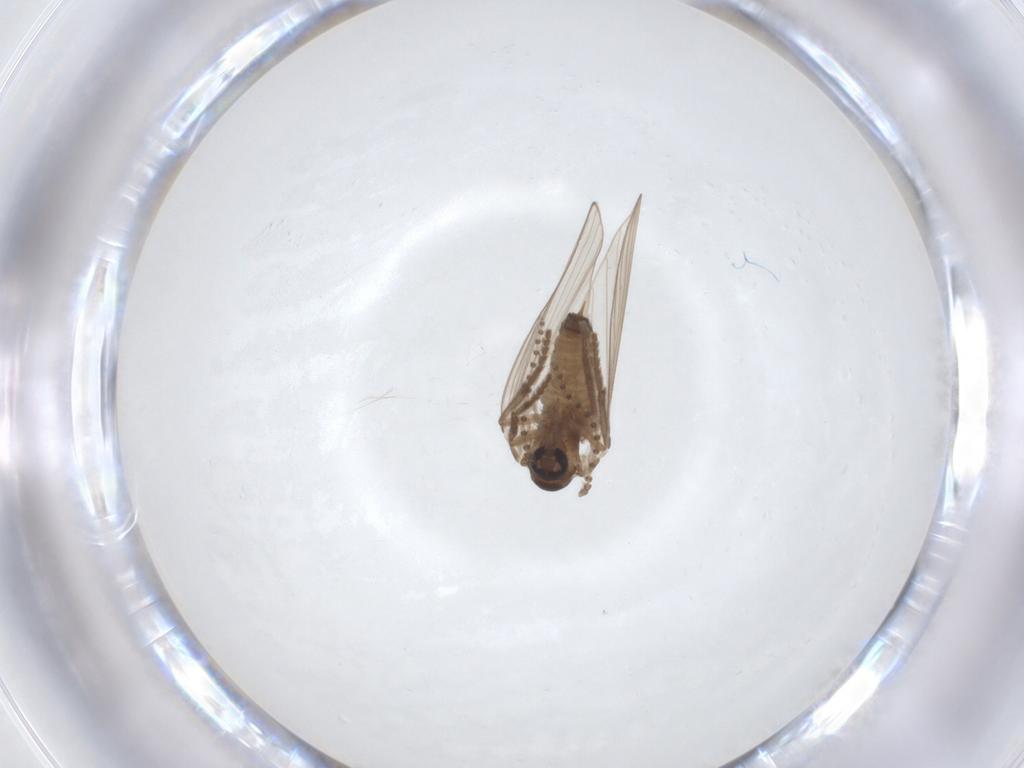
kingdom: Animalia
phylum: Arthropoda
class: Insecta
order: Diptera
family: Psychodidae
